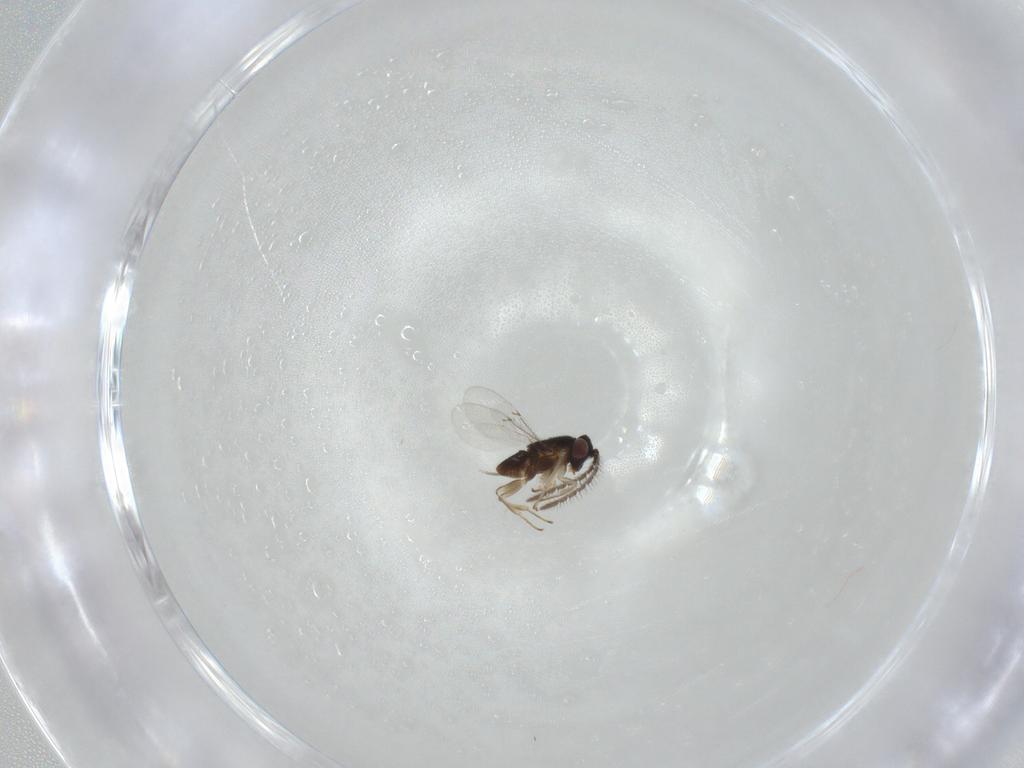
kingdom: Animalia
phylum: Arthropoda
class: Insecta
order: Hymenoptera
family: Encyrtidae
